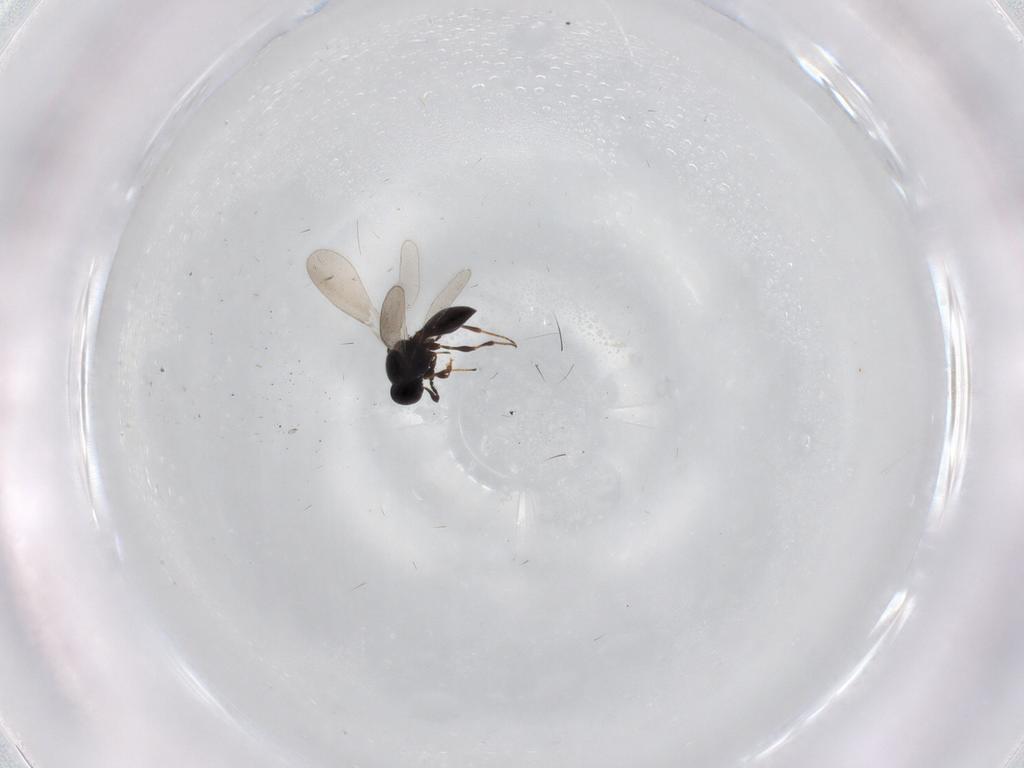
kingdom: Animalia
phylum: Arthropoda
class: Insecta
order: Hymenoptera
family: Platygastridae
